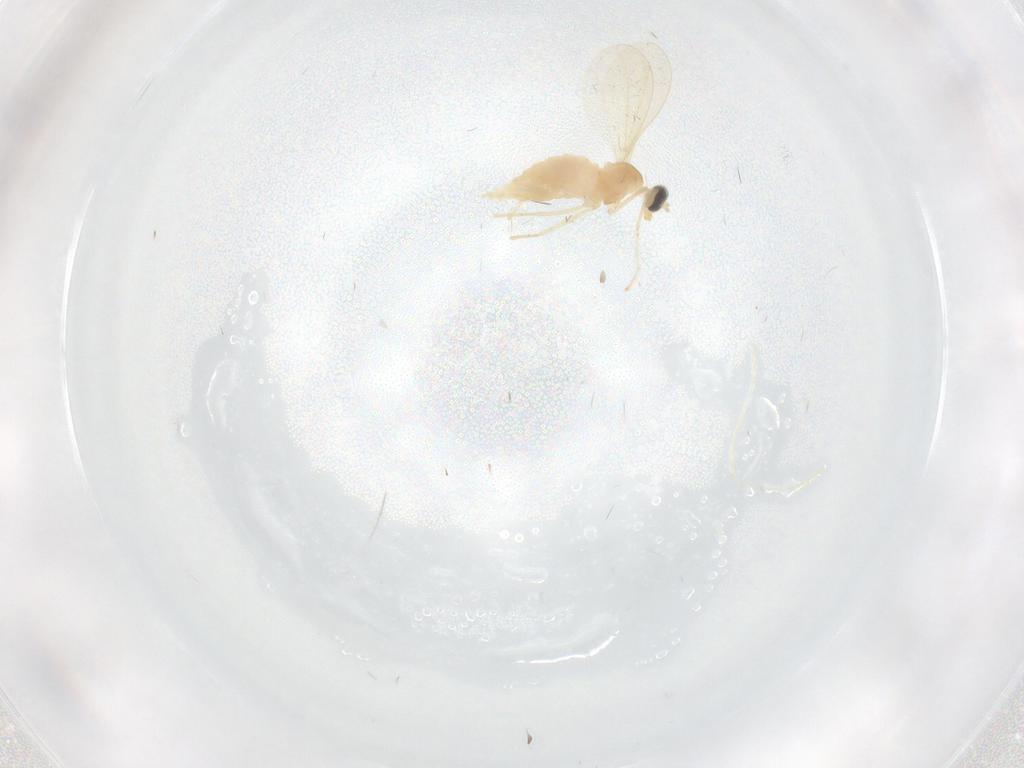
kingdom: Animalia
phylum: Arthropoda
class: Insecta
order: Diptera
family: Cecidomyiidae
